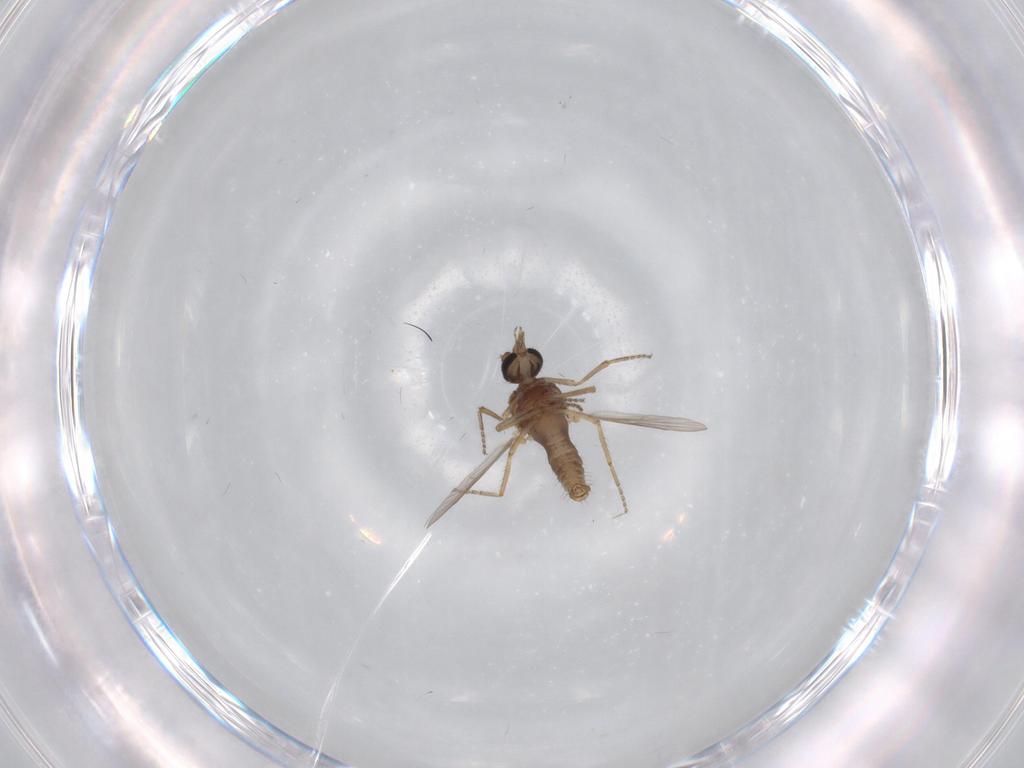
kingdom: Animalia
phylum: Arthropoda
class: Insecta
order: Diptera
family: Ceratopogonidae
